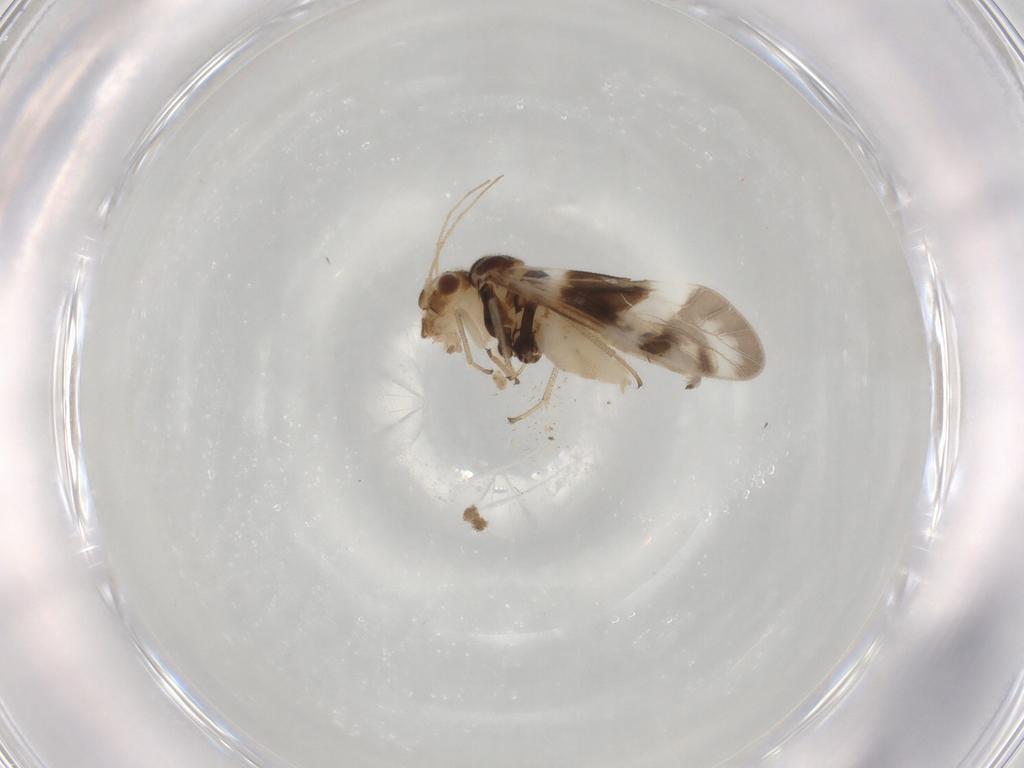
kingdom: Animalia
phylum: Arthropoda
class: Insecta
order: Psocodea
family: Caeciliusidae
